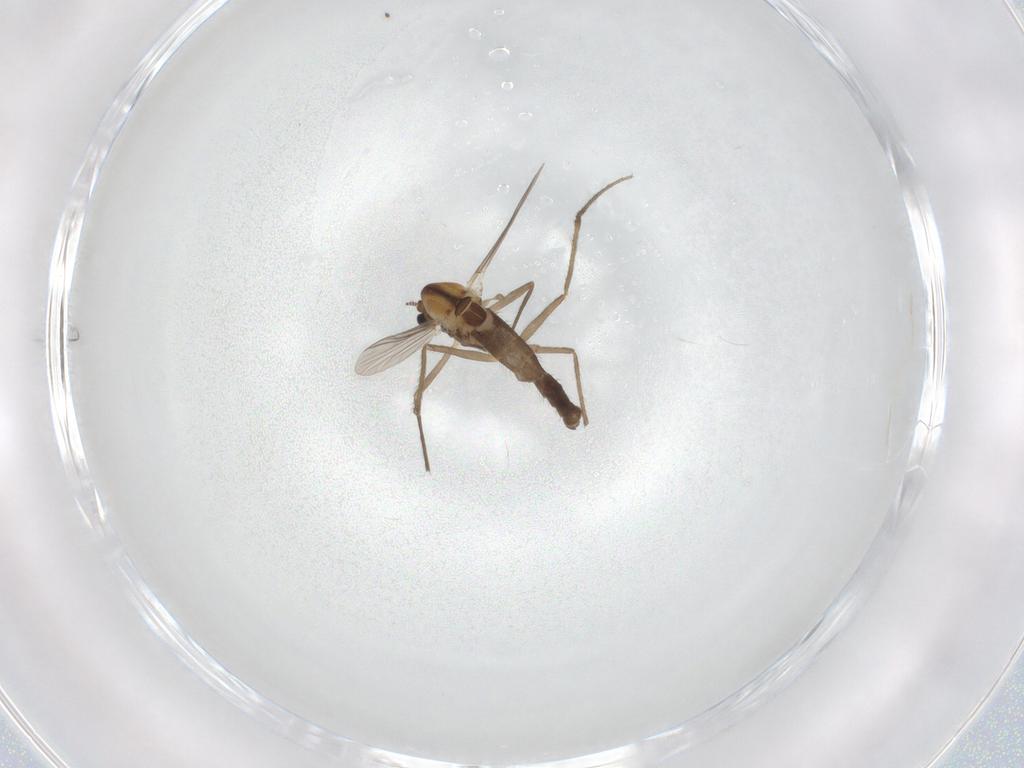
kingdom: Animalia
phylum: Arthropoda
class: Insecta
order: Diptera
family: Chironomidae
